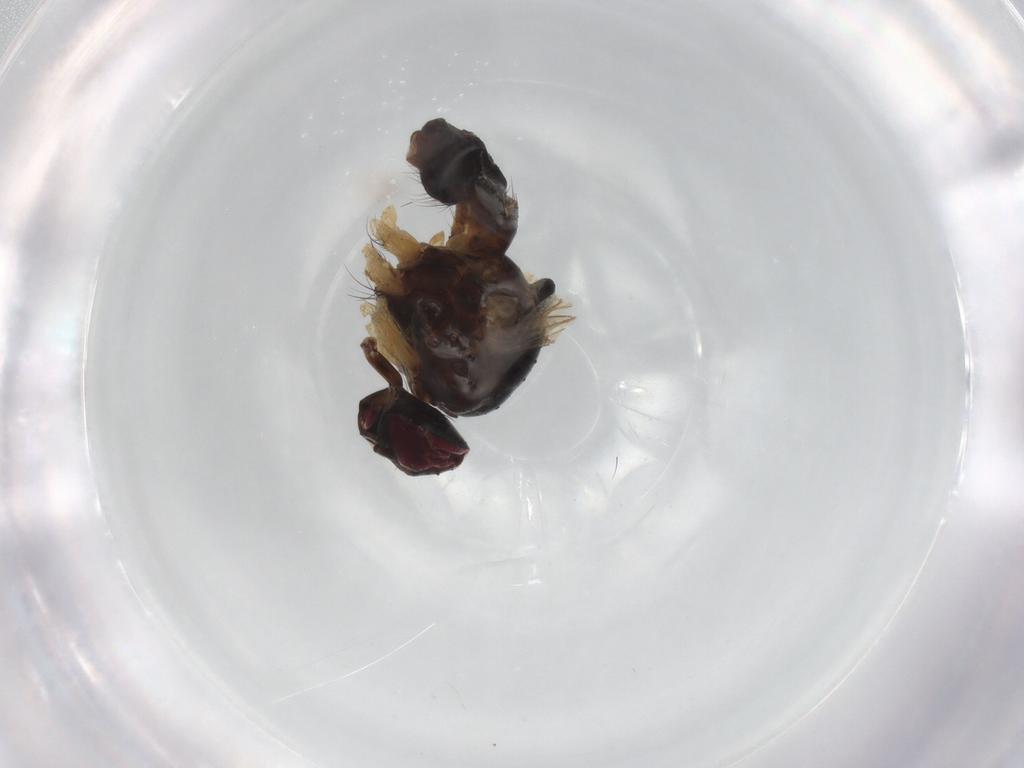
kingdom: Animalia
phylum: Arthropoda
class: Insecta
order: Diptera
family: Muscidae
